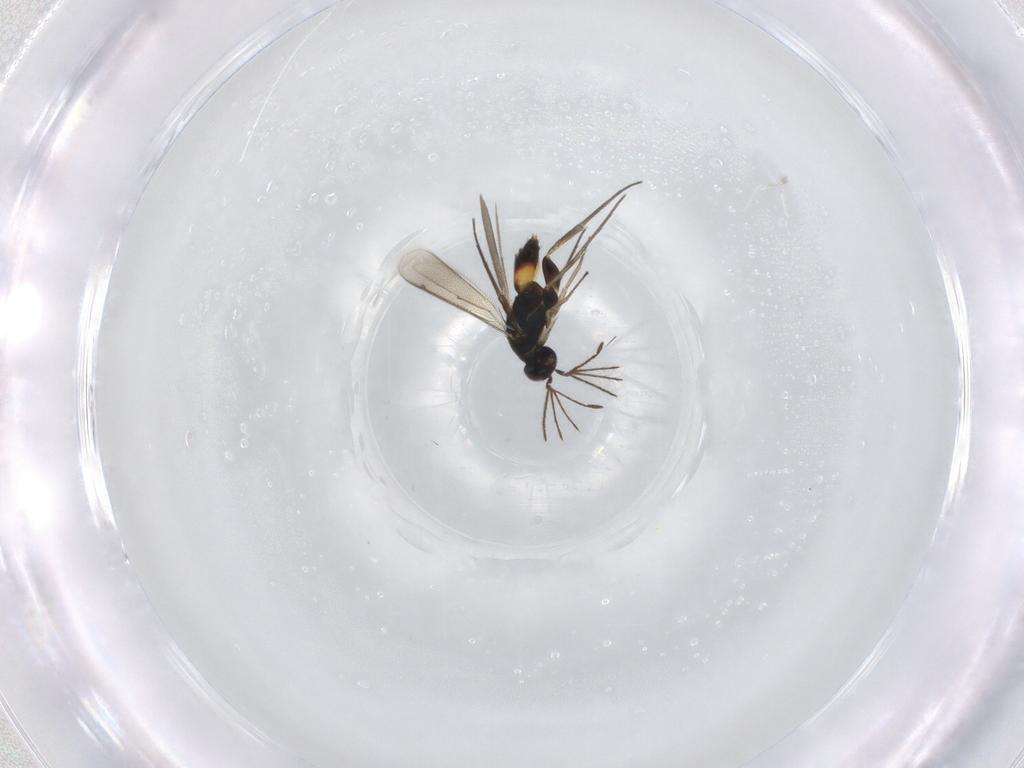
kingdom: Animalia
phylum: Arthropoda
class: Insecta
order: Hymenoptera
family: Eulophidae
